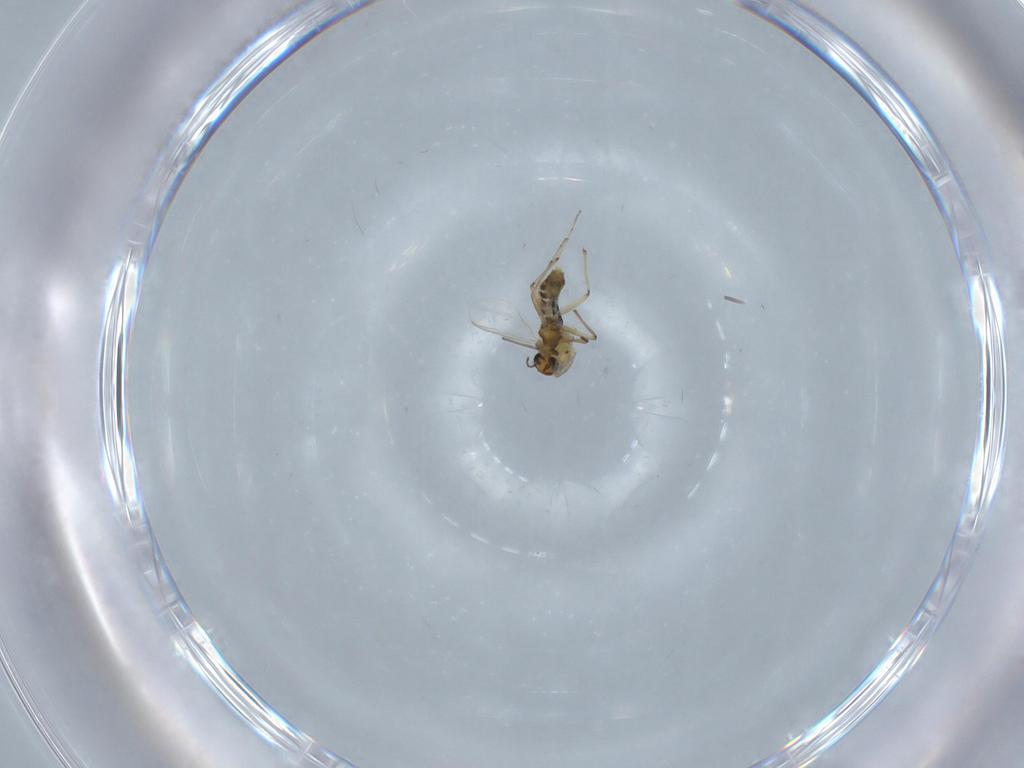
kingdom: Animalia
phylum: Arthropoda
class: Insecta
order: Diptera
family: Chironomidae
